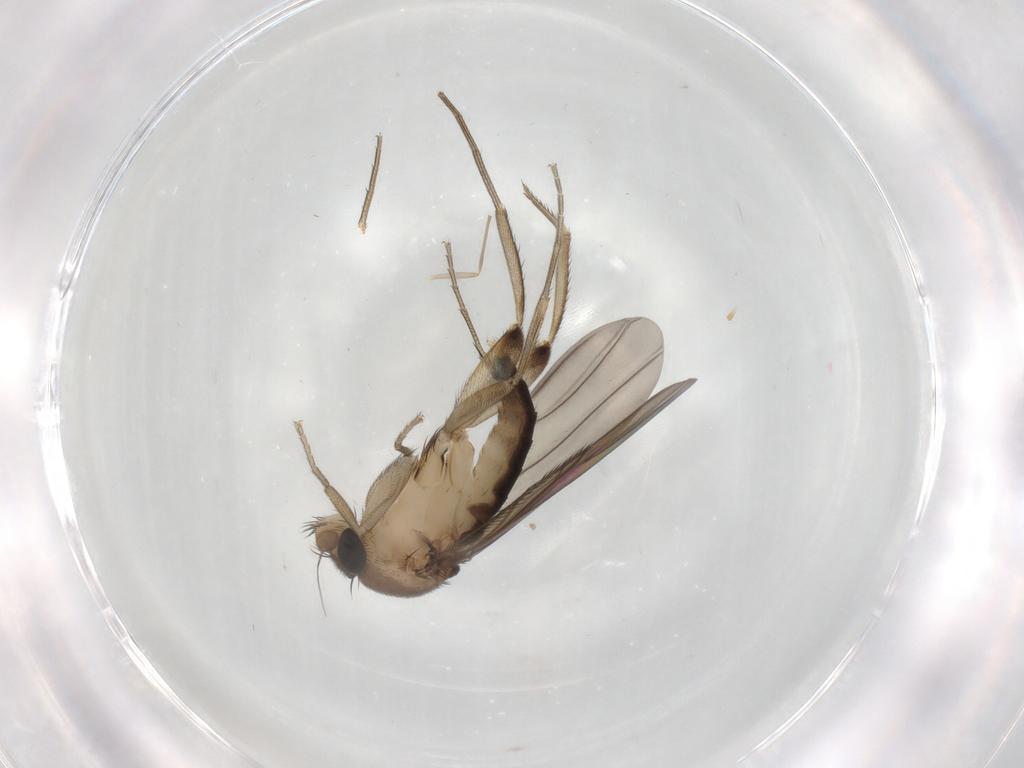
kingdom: Animalia
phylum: Arthropoda
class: Insecta
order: Diptera
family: Phoridae
